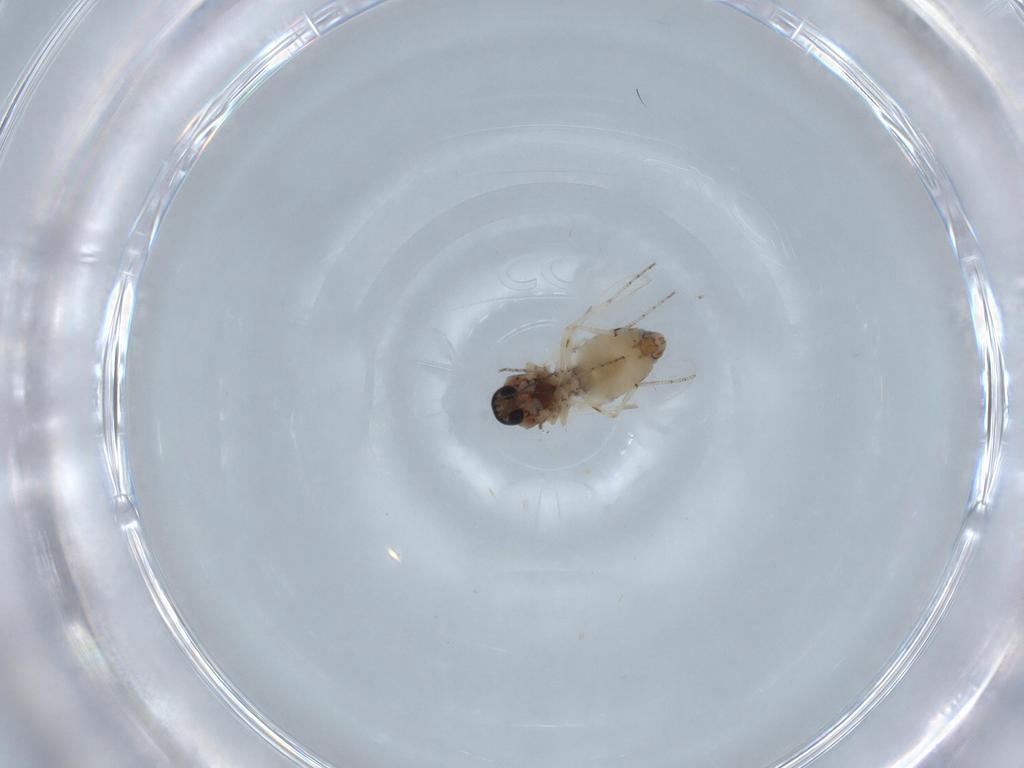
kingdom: Animalia
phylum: Arthropoda
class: Insecta
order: Diptera
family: Ceratopogonidae
